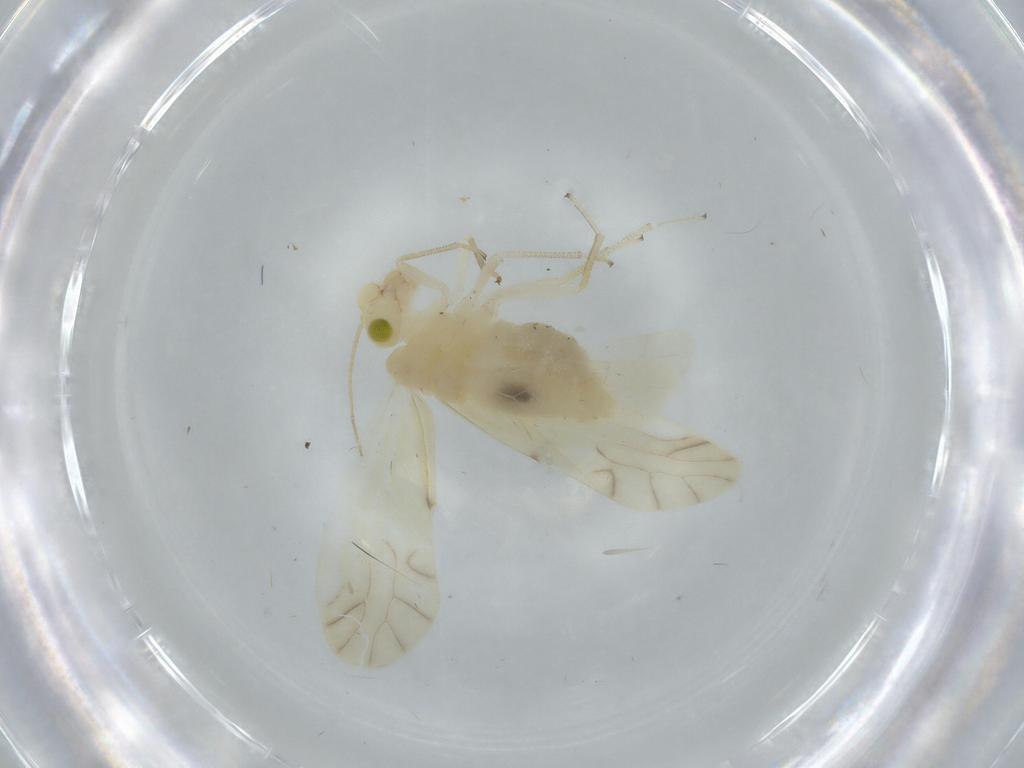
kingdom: Animalia
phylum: Arthropoda
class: Insecta
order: Psocodea
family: Caeciliusidae
